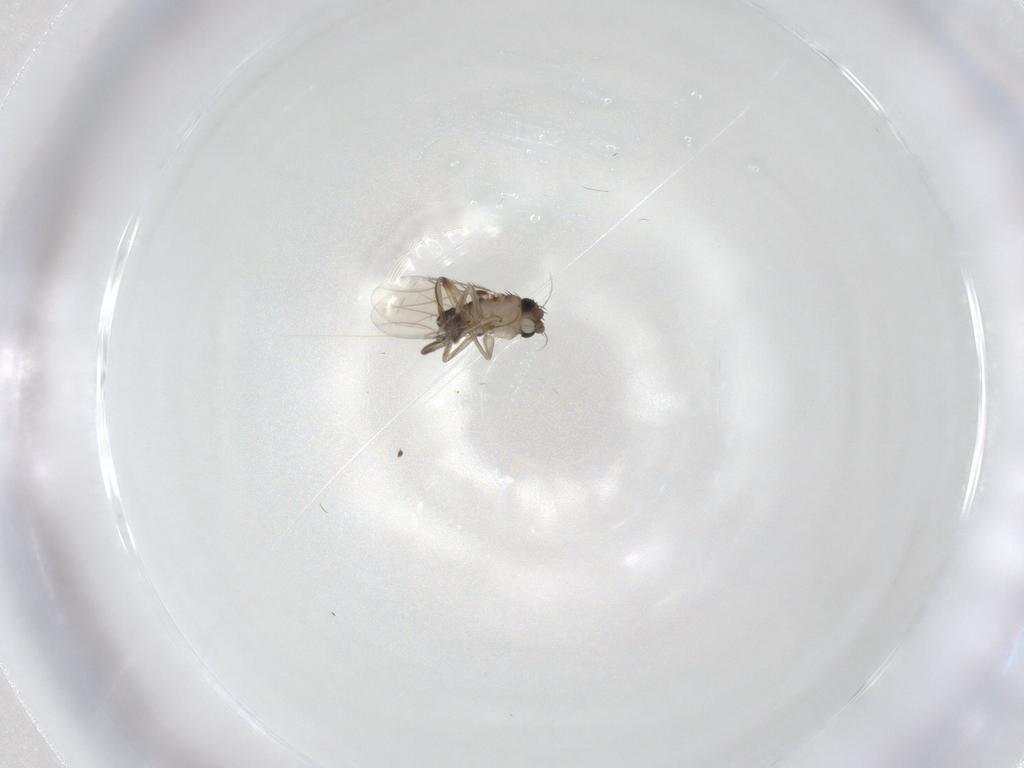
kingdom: Animalia
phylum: Arthropoda
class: Insecta
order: Diptera
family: Phoridae
